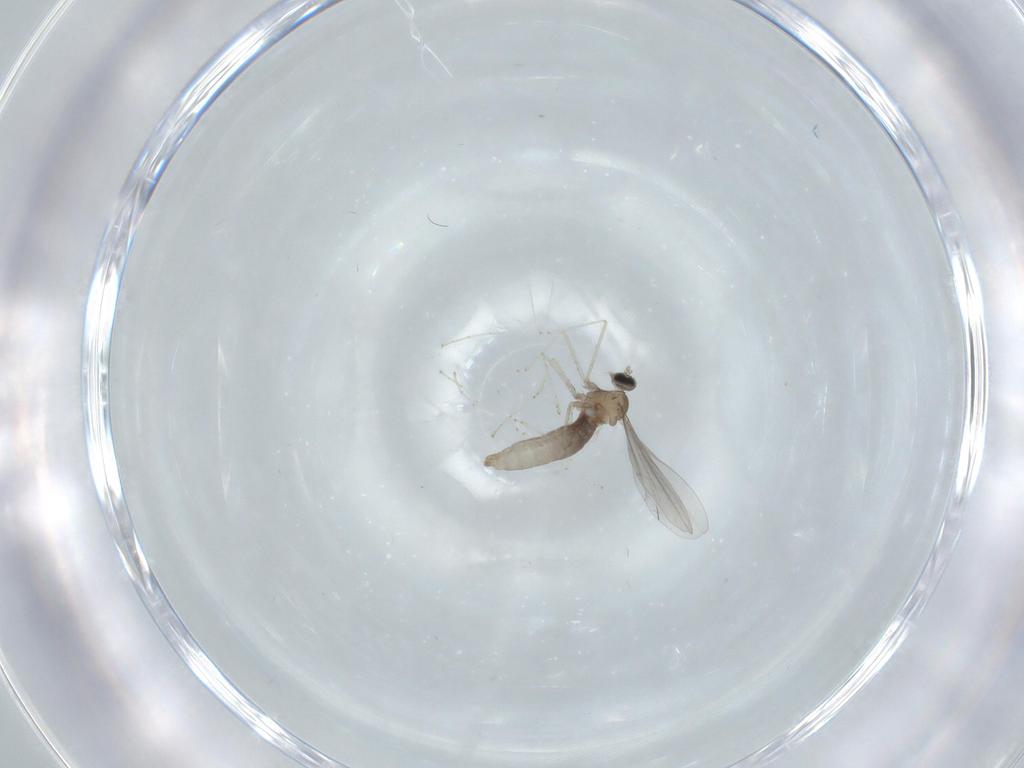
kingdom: Animalia
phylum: Arthropoda
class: Insecta
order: Diptera
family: Cecidomyiidae
